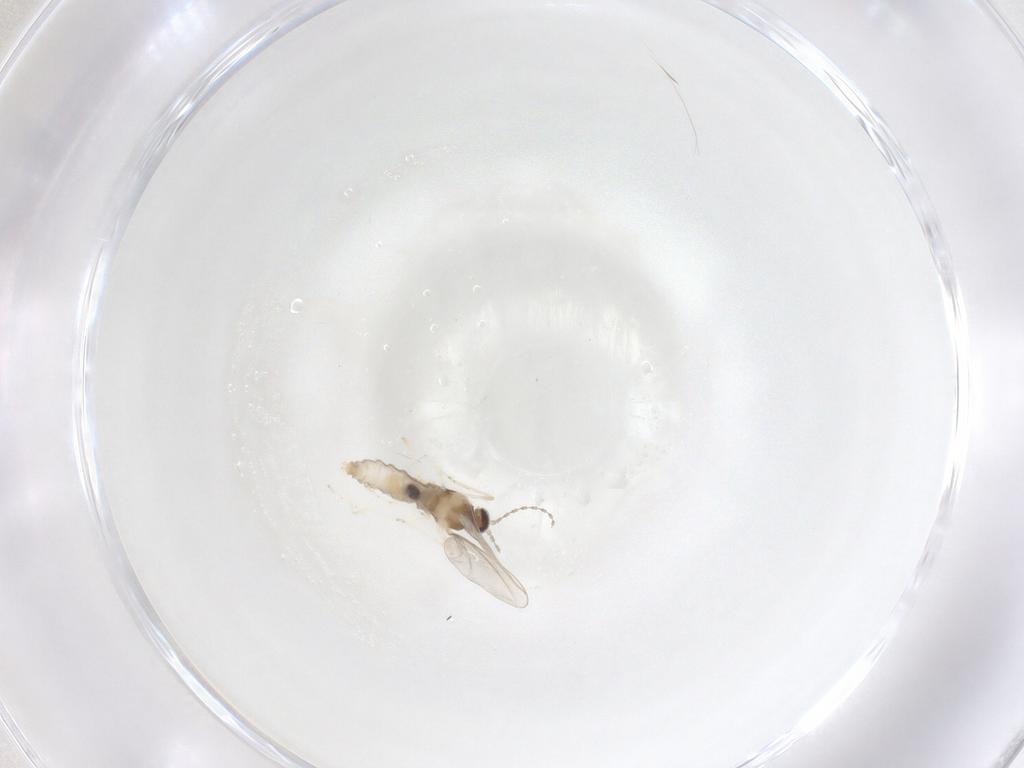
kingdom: Animalia
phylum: Arthropoda
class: Insecta
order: Diptera
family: Cecidomyiidae
